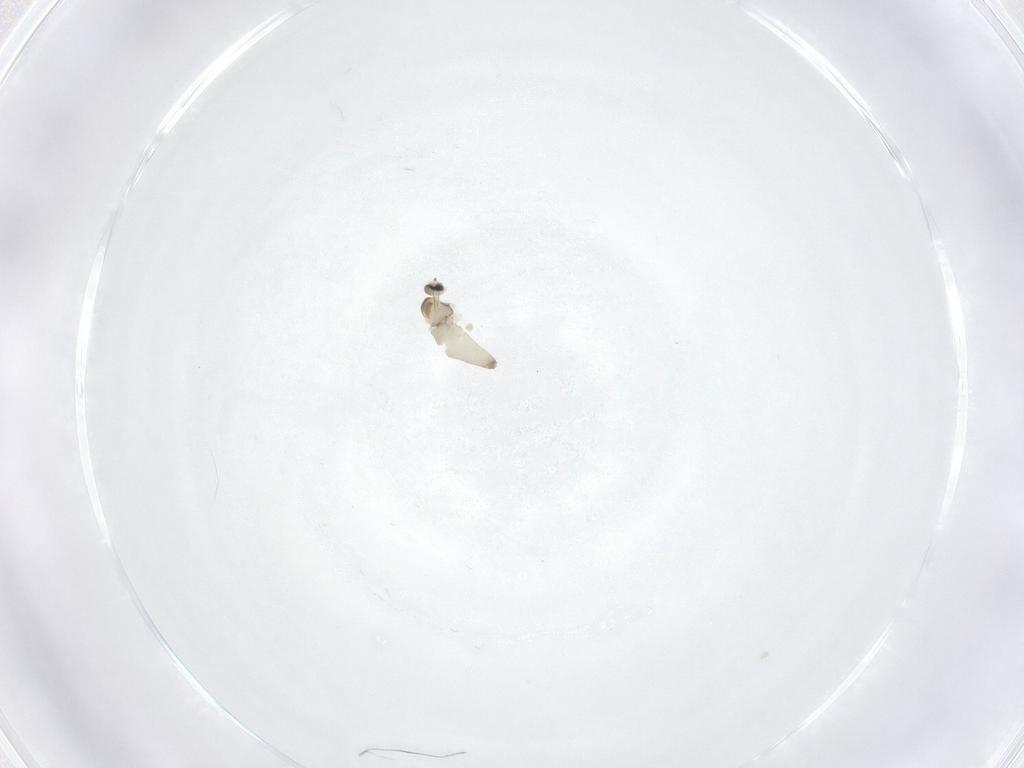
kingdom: Animalia
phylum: Arthropoda
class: Insecta
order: Diptera
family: Cecidomyiidae
